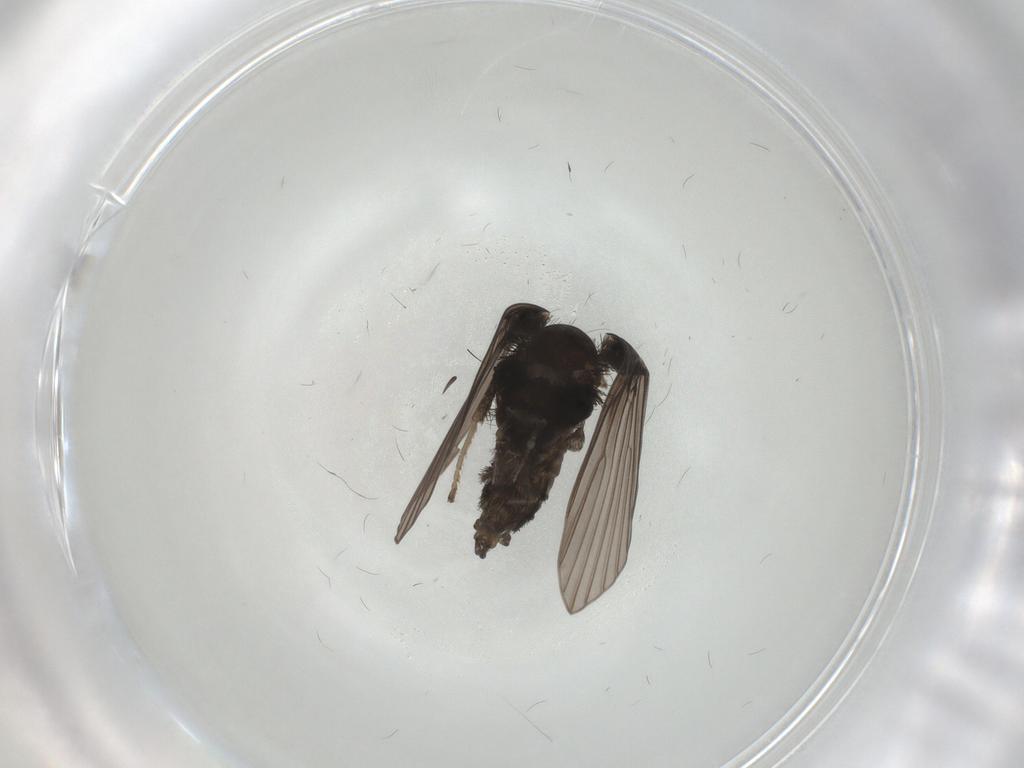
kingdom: Animalia
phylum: Arthropoda
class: Insecta
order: Diptera
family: Psychodidae
